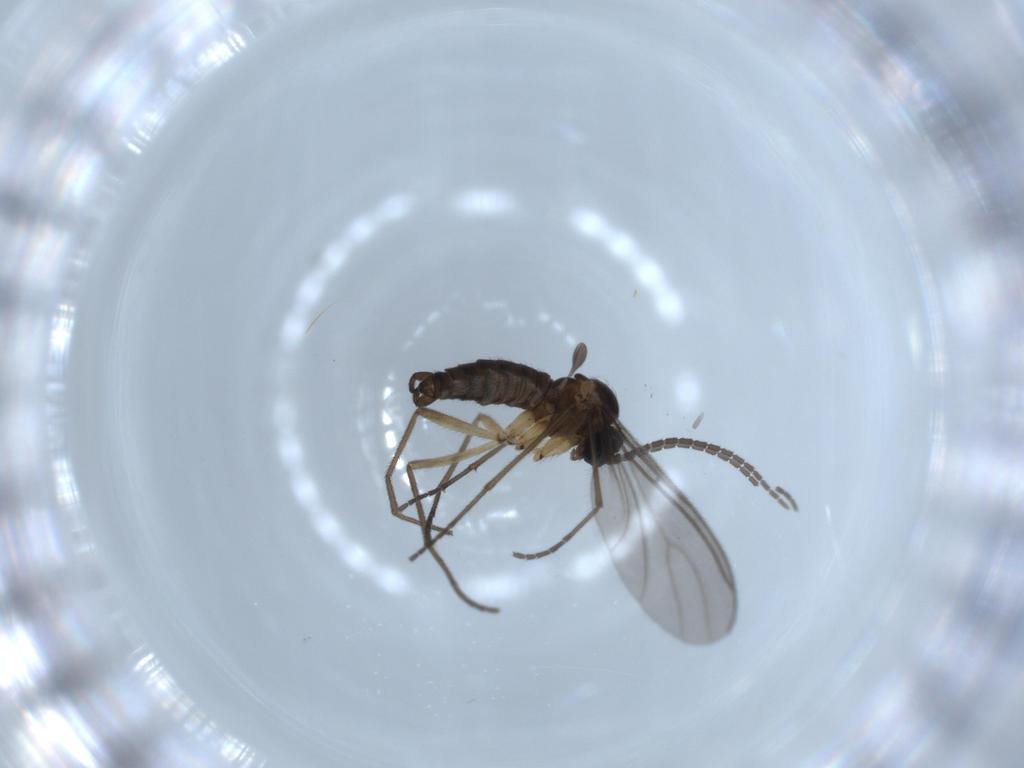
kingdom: Animalia
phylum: Arthropoda
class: Insecta
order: Diptera
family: Sciaridae
